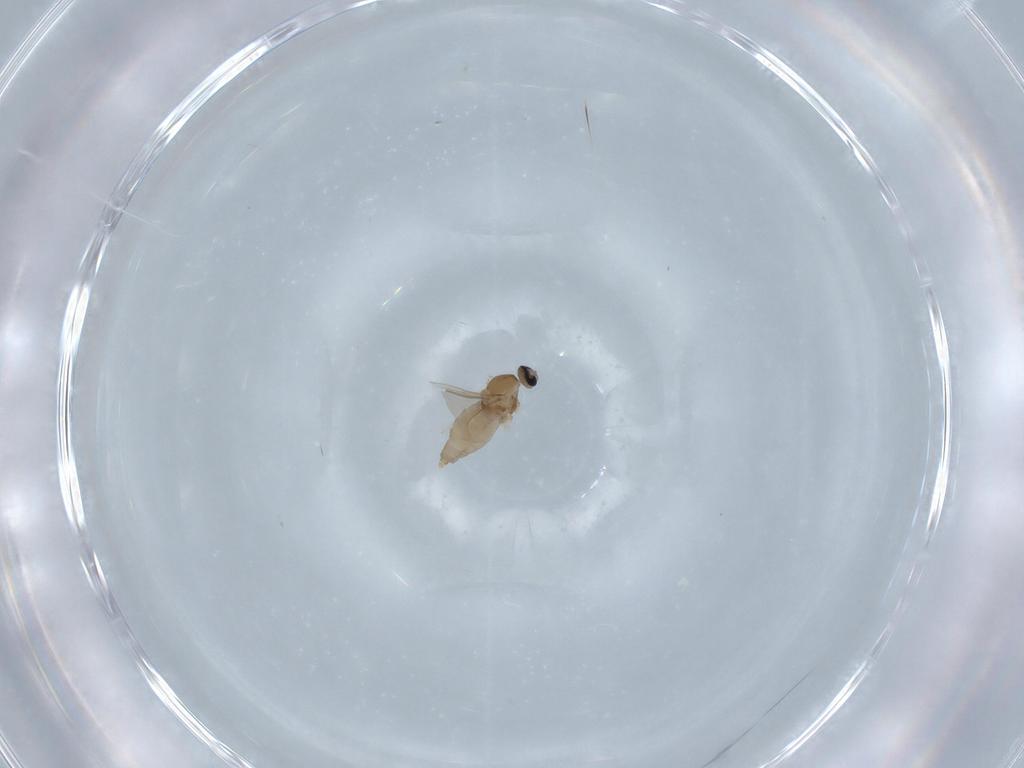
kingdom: Animalia
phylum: Arthropoda
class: Insecta
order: Diptera
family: Cecidomyiidae
